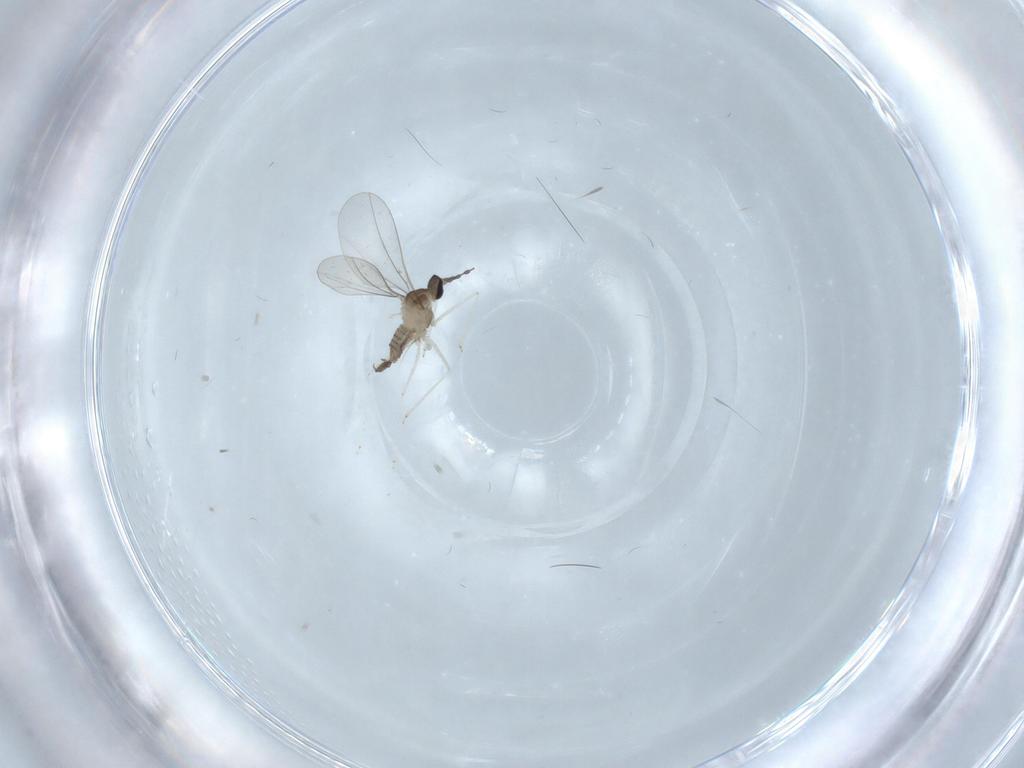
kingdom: Animalia
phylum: Arthropoda
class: Insecta
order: Diptera
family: Cecidomyiidae
